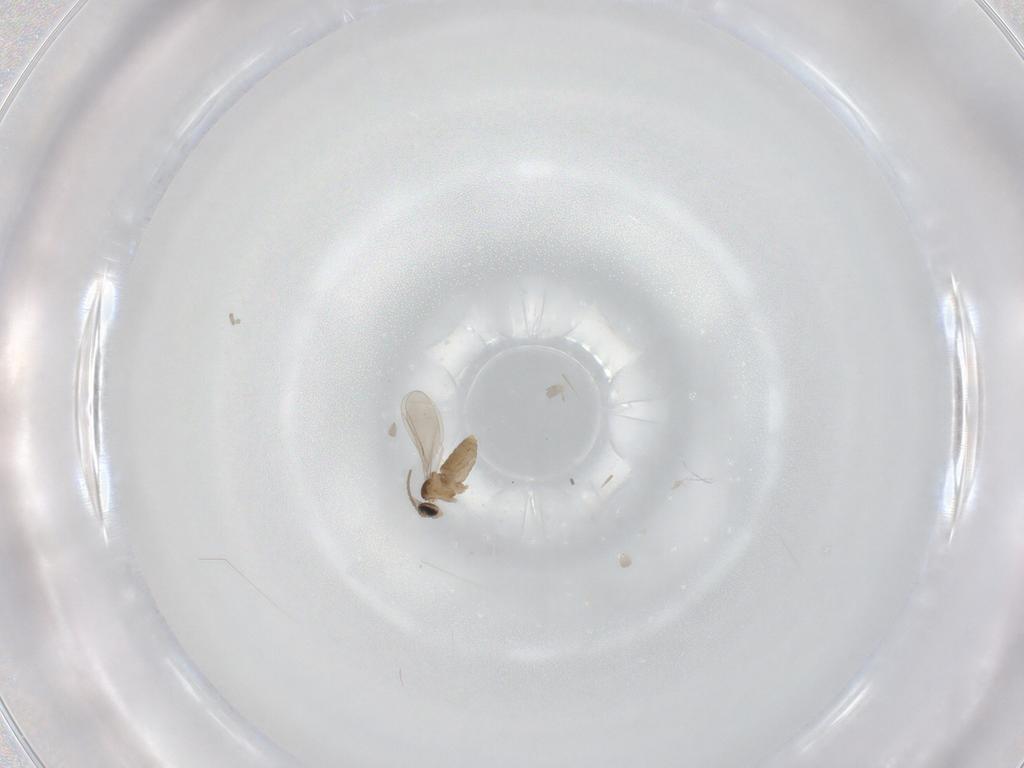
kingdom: Animalia
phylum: Arthropoda
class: Insecta
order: Diptera
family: Cecidomyiidae
